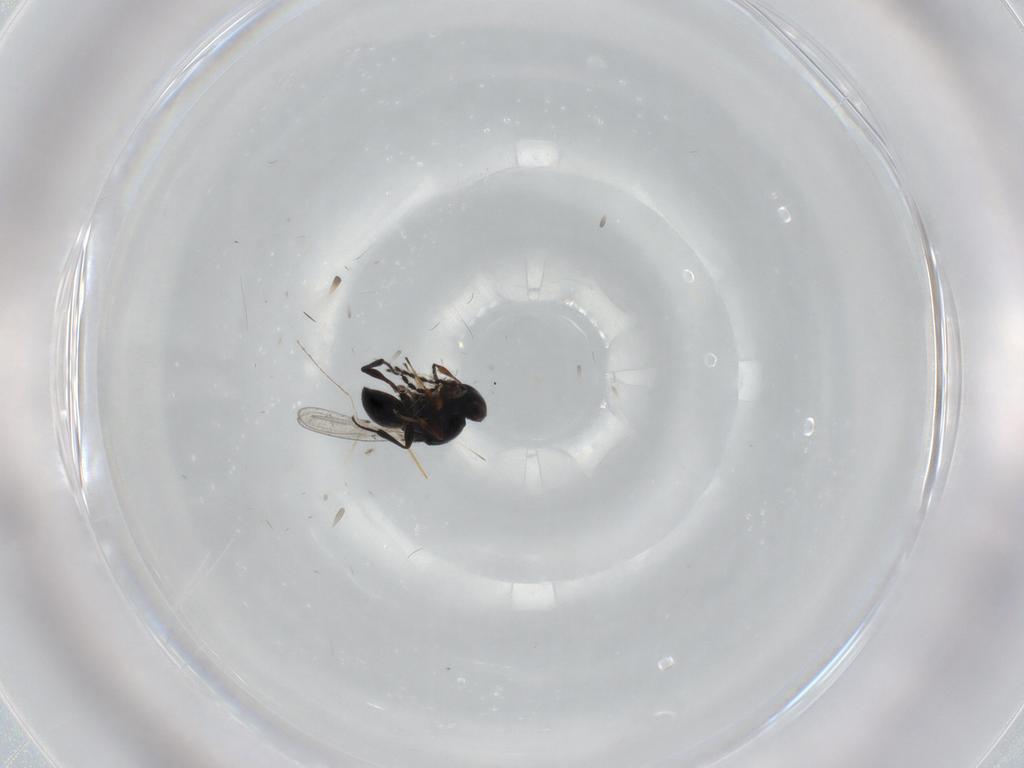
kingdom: Animalia
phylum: Arthropoda
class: Insecta
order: Hymenoptera
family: Platygastridae
